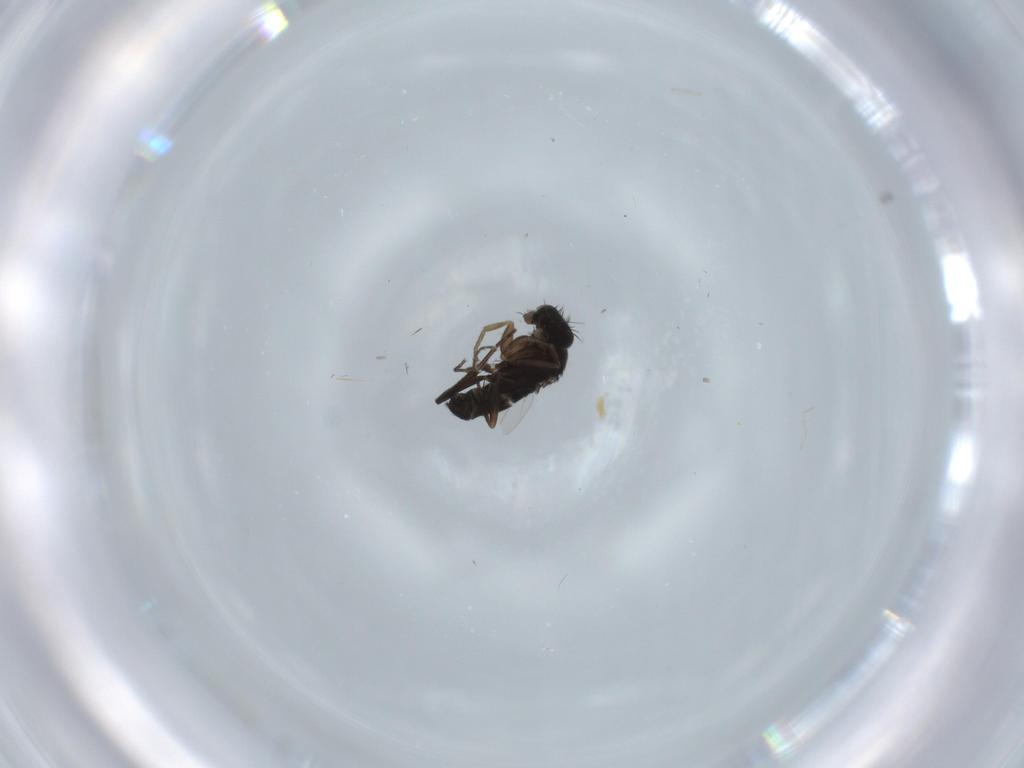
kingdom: Animalia
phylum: Arthropoda
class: Insecta
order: Diptera
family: Phoridae
